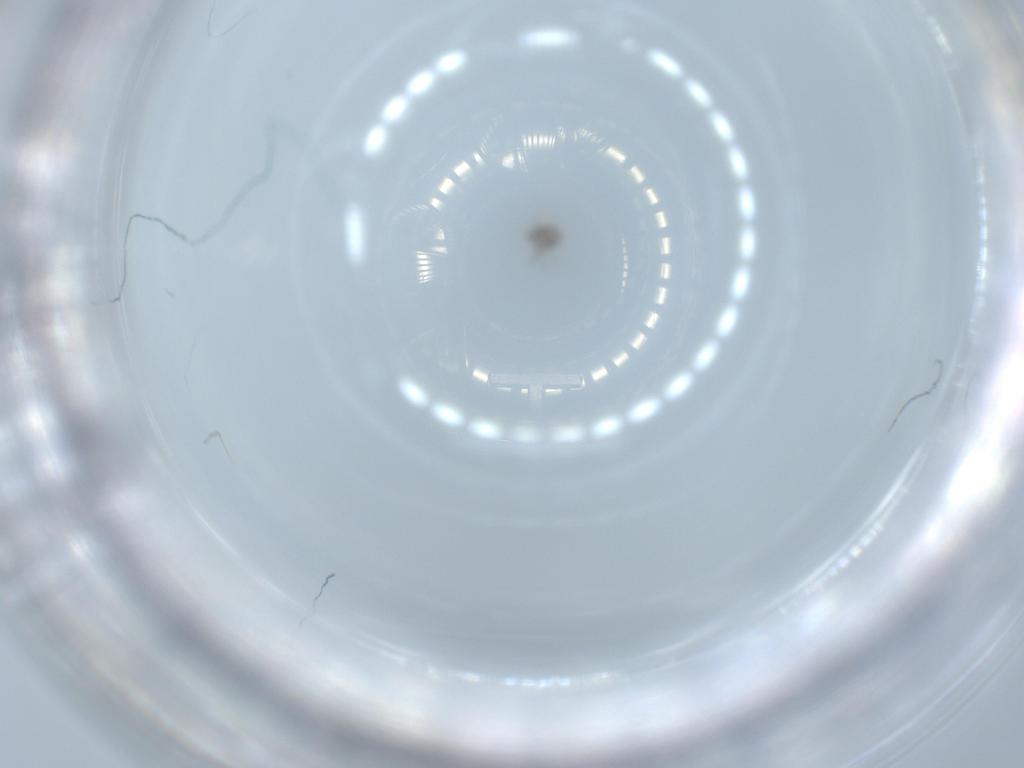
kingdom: Animalia
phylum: Arthropoda
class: Insecta
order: Hymenoptera
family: Aphelinidae
